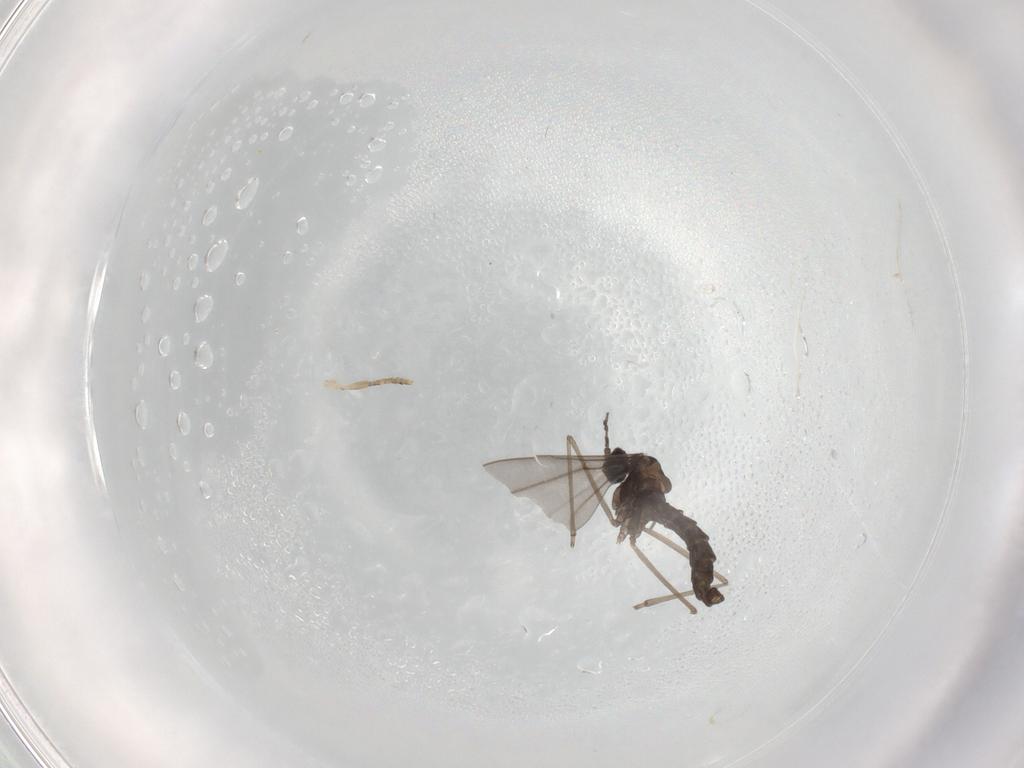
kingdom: Animalia
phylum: Arthropoda
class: Insecta
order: Diptera
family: Cecidomyiidae
